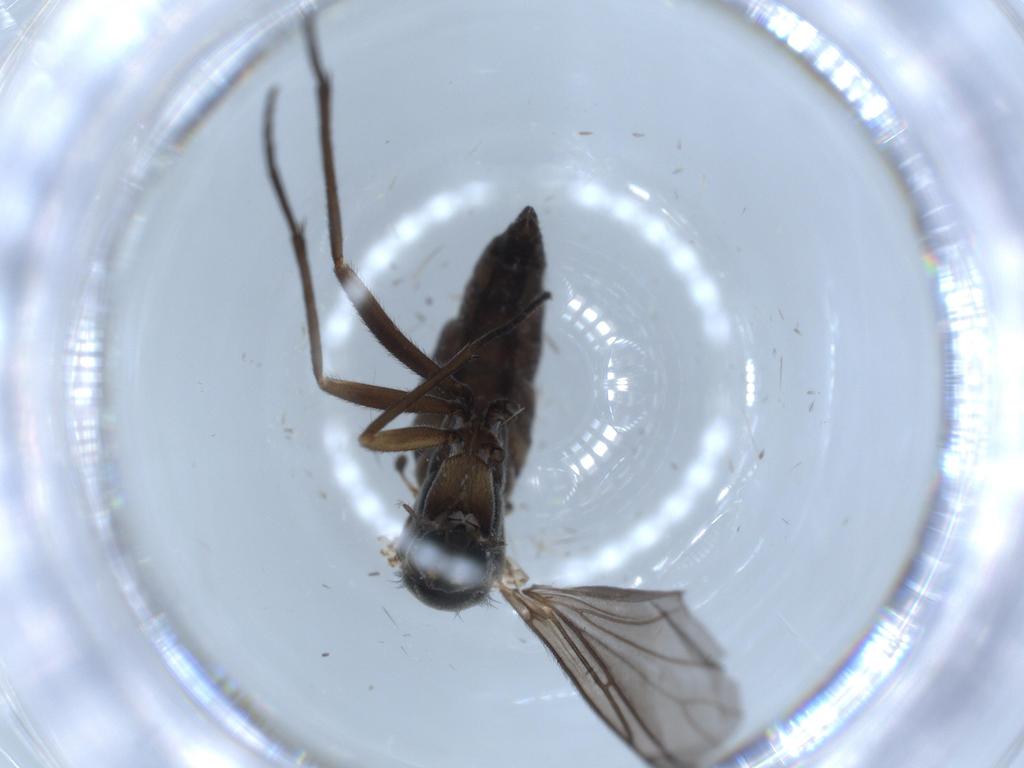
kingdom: Animalia
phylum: Arthropoda
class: Insecta
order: Diptera
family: Sciaridae
